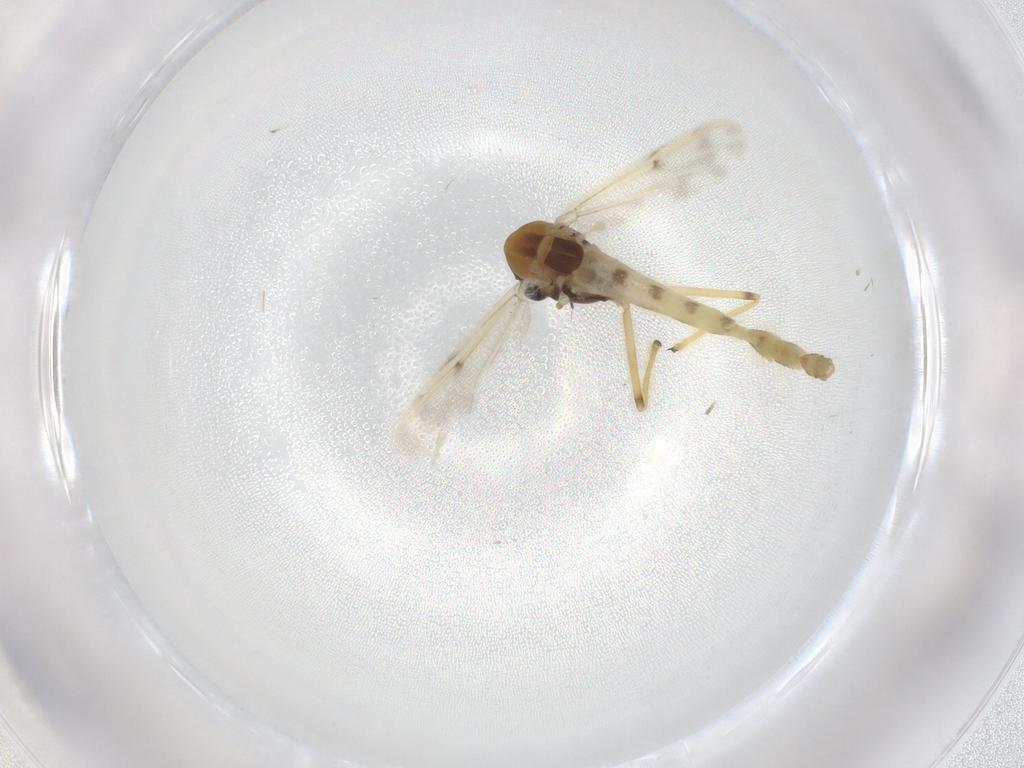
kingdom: Animalia
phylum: Arthropoda
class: Insecta
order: Diptera
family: Chironomidae
